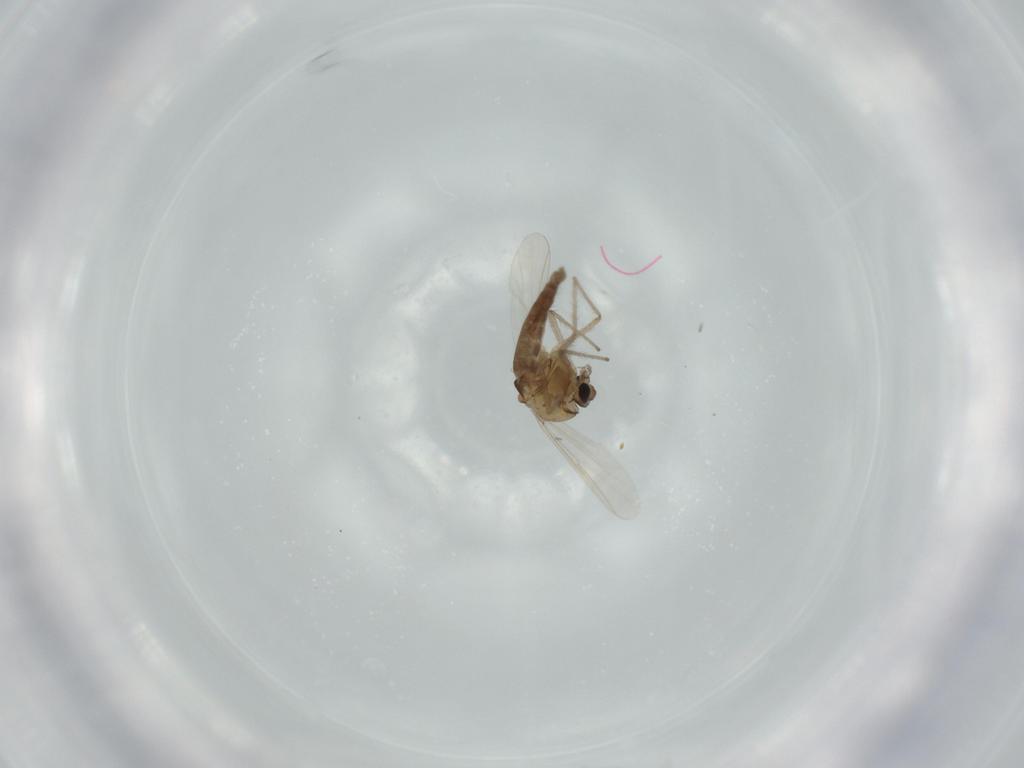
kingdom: Animalia
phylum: Arthropoda
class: Insecta
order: Diptera
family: Chironomidae
